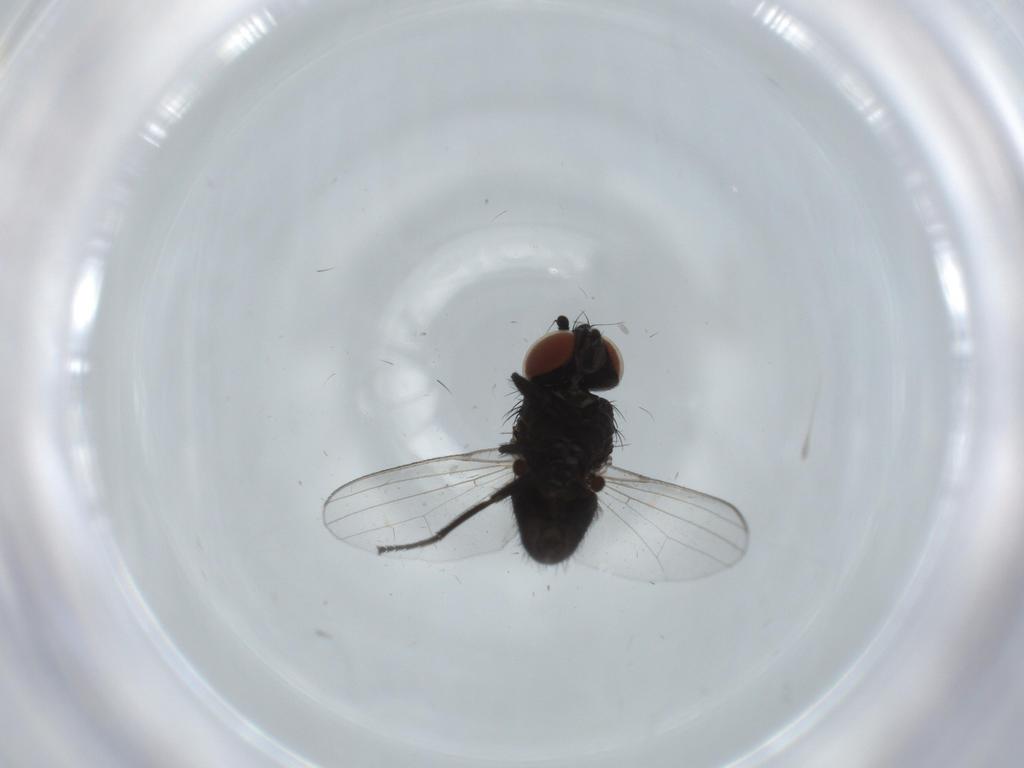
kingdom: Animalia
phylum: Arthropoda
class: Insecta
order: Diptera
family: Milichiidae
